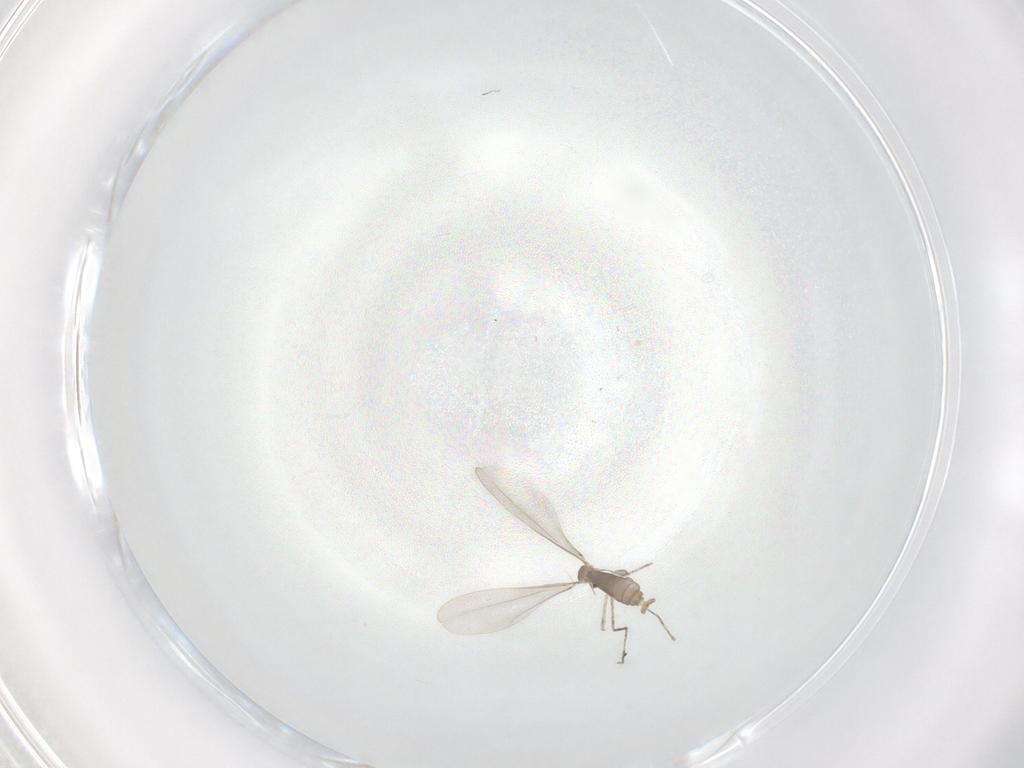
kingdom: Animalia
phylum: Arthropoda
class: Insecta
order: Diptera
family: Cecidomyiidae
